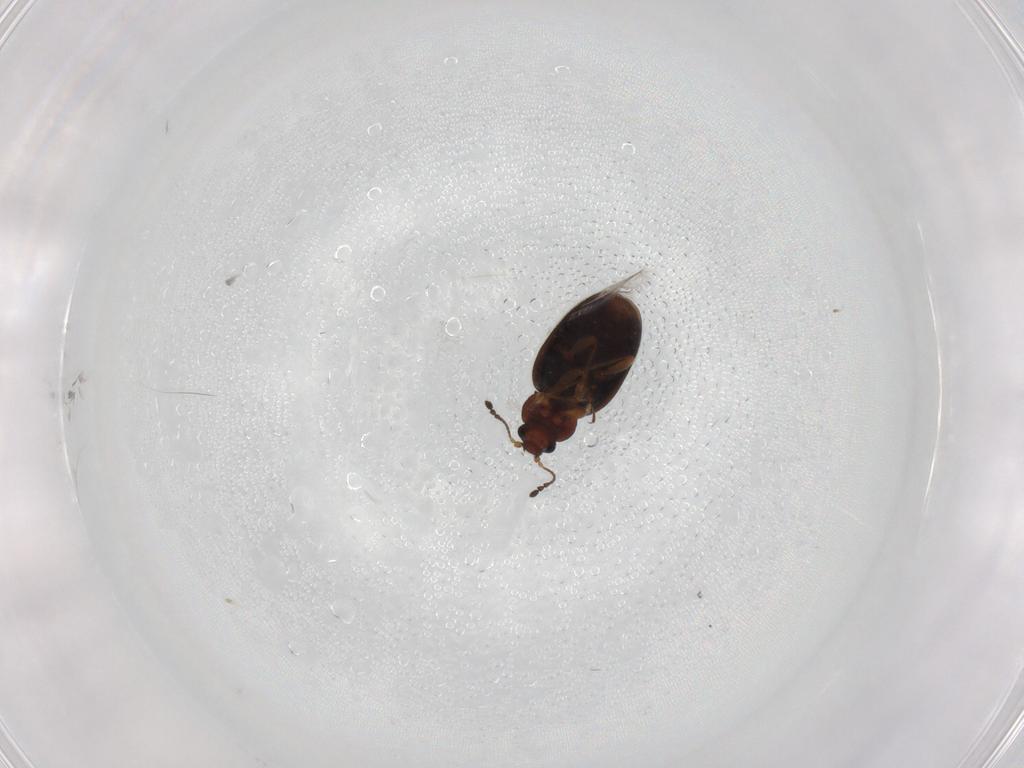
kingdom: Animalia
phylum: Arthropoda
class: Insecta
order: Coleoptera
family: Latridiidae
